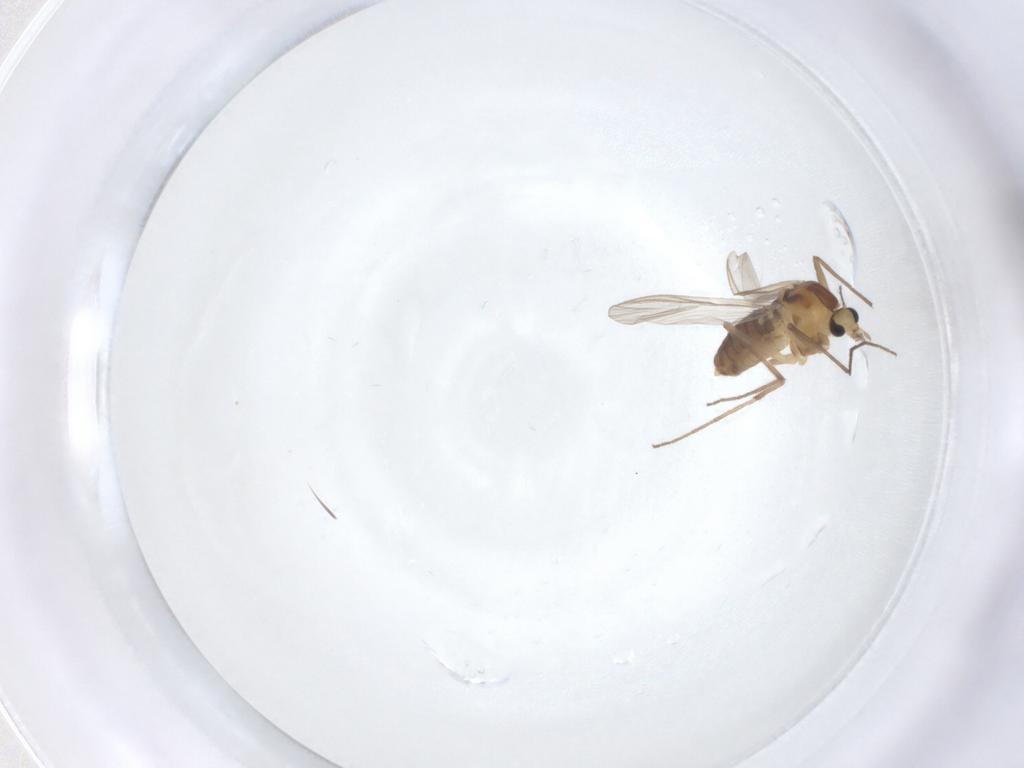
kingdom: Animalia
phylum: Arthropoda
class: Insecta
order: Diptera
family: Chironomidae
